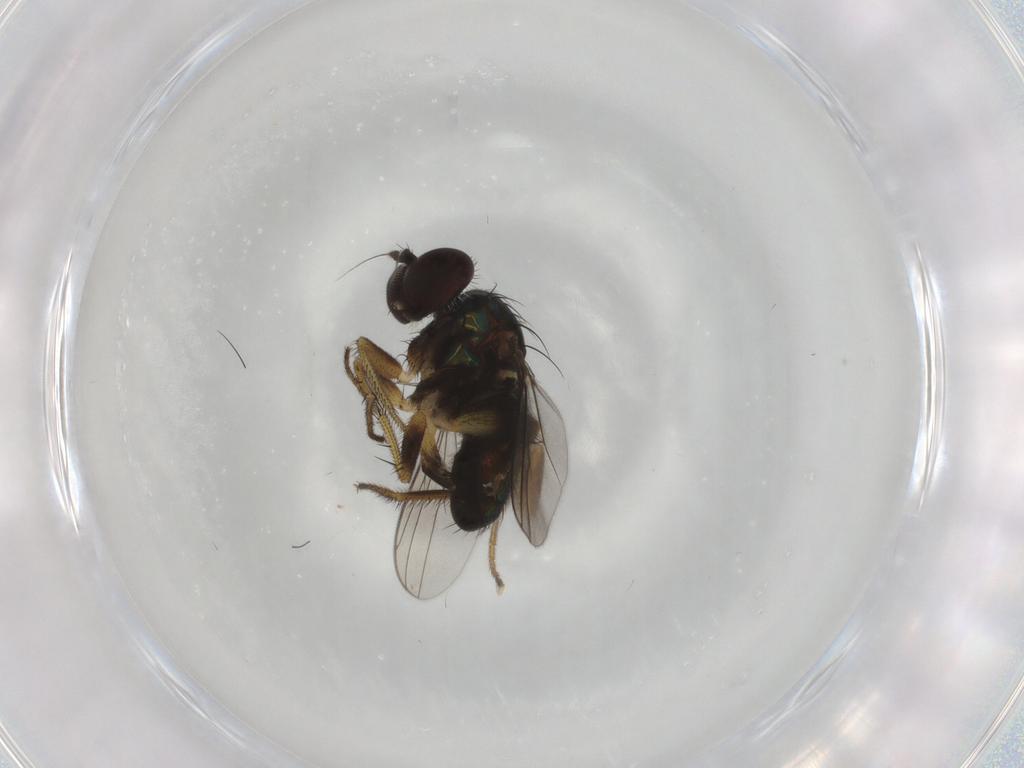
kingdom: Animalia
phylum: Arthropoda
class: Insecta
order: Diptera
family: Dolichopodidae
